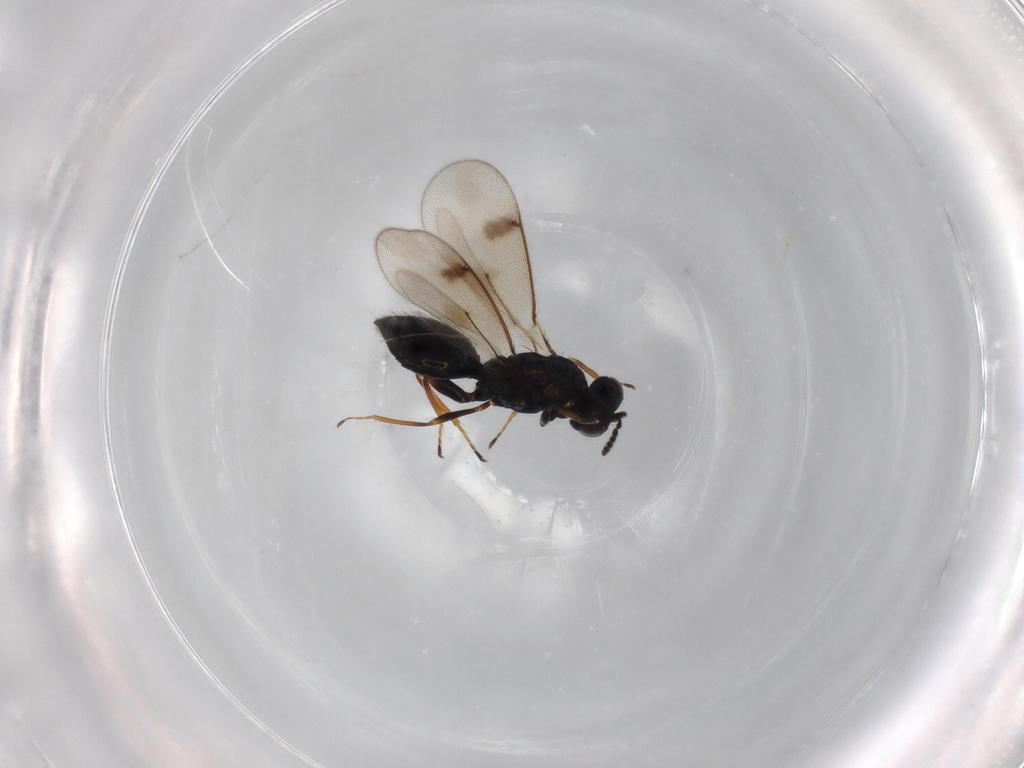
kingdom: Animalia
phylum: Arthropoda
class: Insecta
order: Hymenoptera
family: Eulophidae
